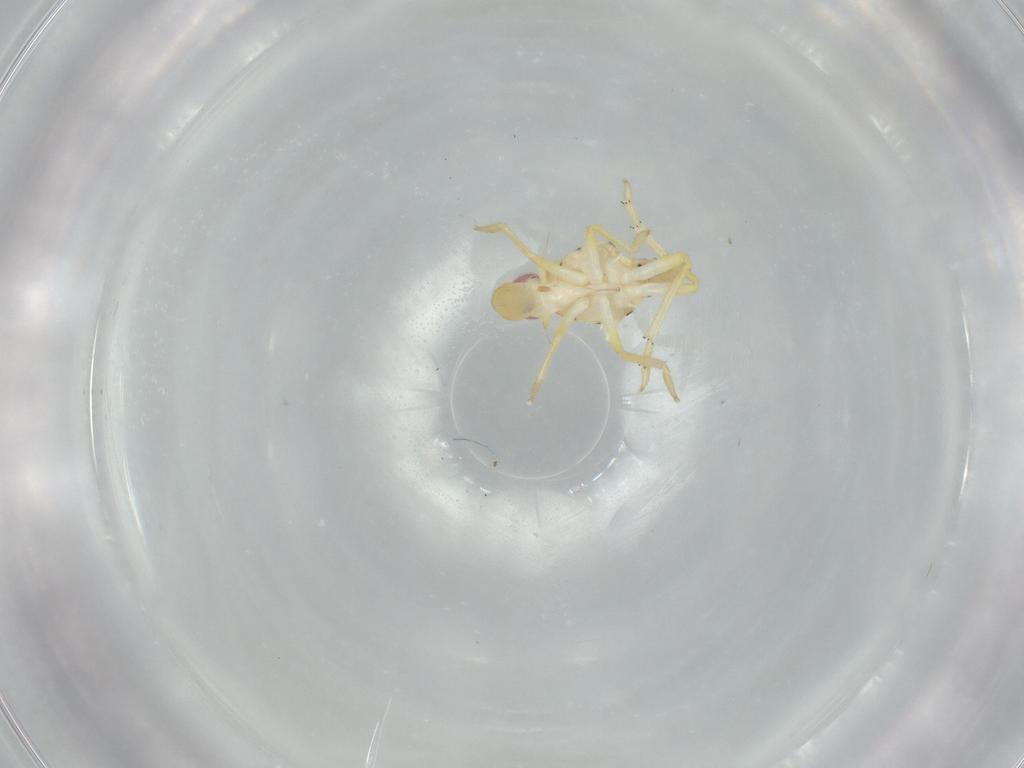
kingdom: Animalia
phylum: Arthropoda
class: Insecta
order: Hemiptera
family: Tropiduchidae
